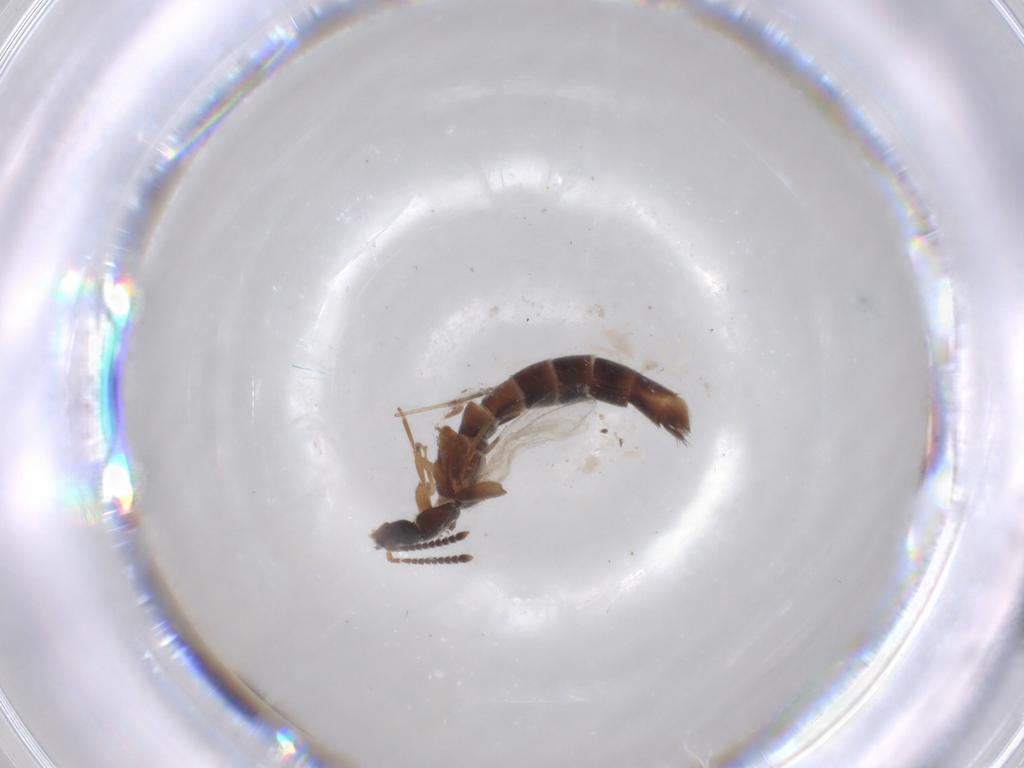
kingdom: Animalia
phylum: Arthropoda
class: Insecta
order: Coleoptera
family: Staphylinidae
